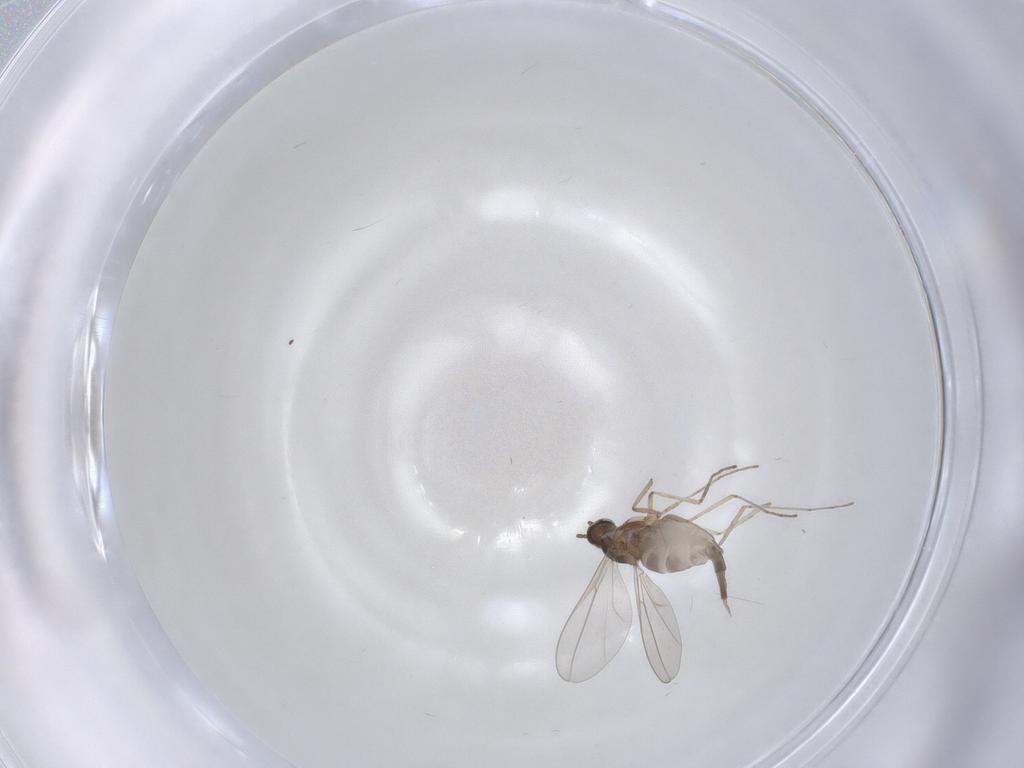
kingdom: Animalia
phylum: Arthropoda
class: Insecta
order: Diptera
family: Cecidomyiidae
